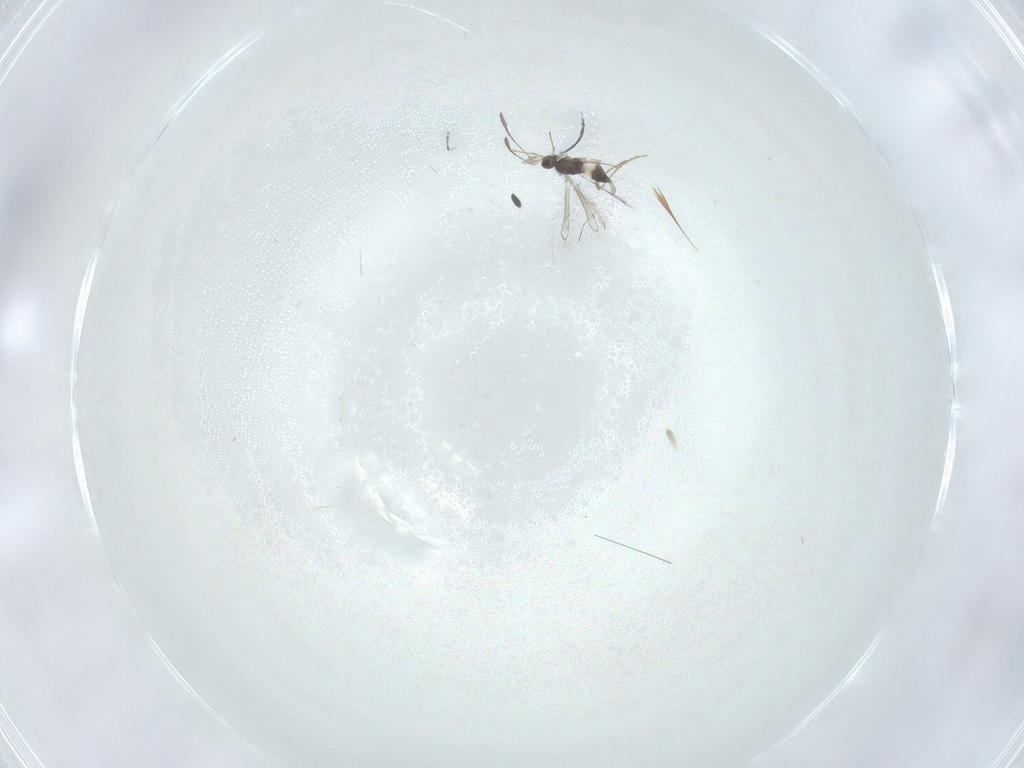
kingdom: Animalia
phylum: Arthropoda
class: Insecta
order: Hymenoptera
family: Mymaridae
